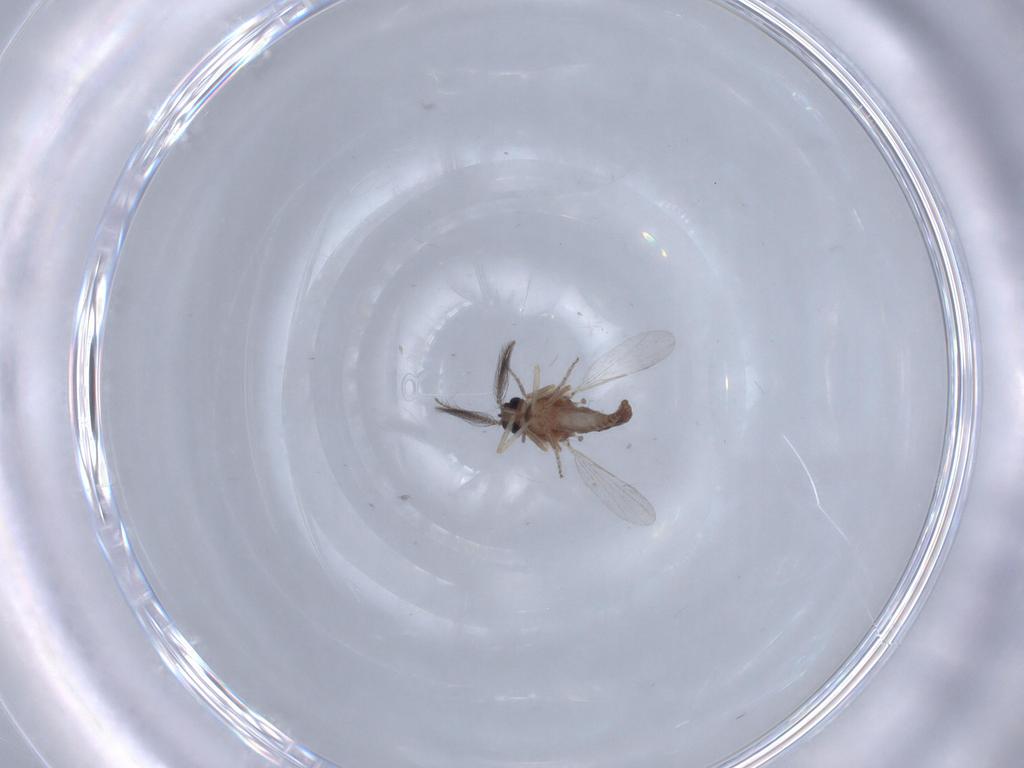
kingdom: Animalia
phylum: Arthropoda
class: Insecta
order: Diptera
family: Ceratopogonidae
